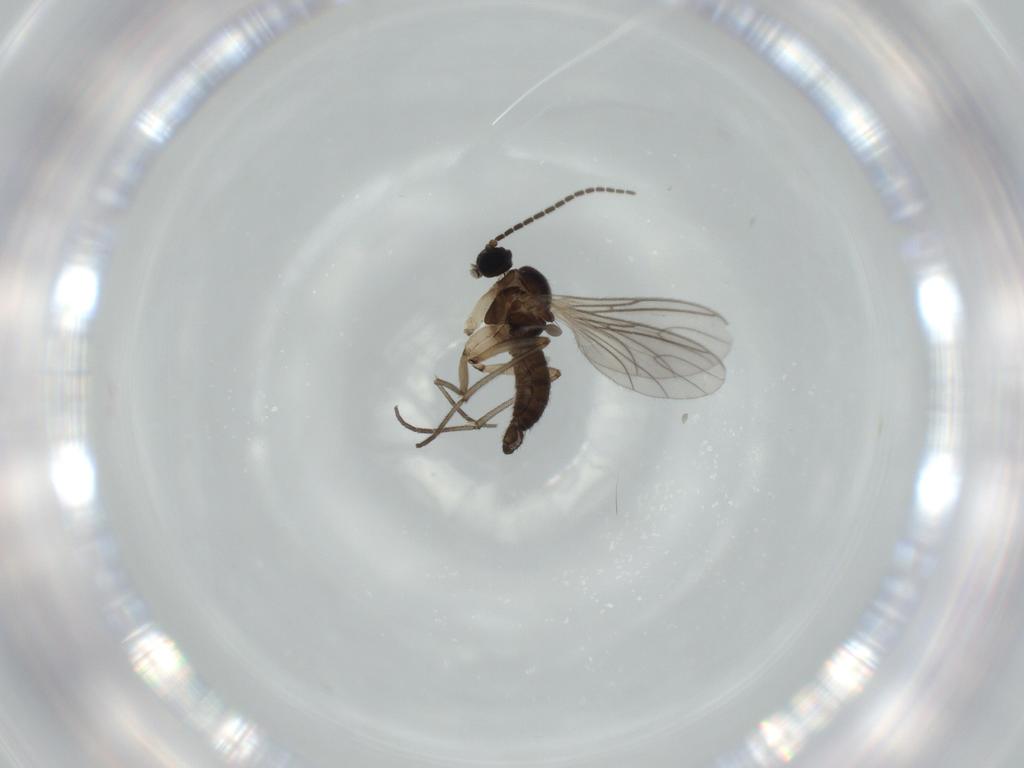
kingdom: Animalia
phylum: Arthropoda
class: Insecta
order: Diptera
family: Sciaridae
